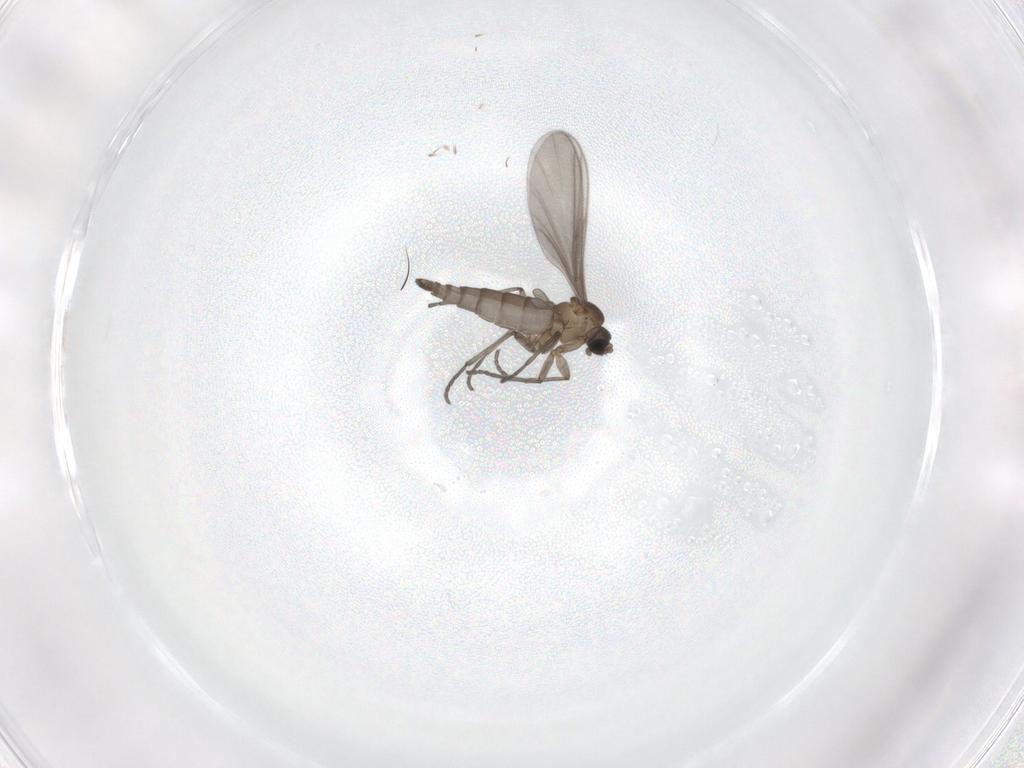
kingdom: Animalia
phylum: Arthropoda
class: Insecta
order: Diptera
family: Sciaridae
